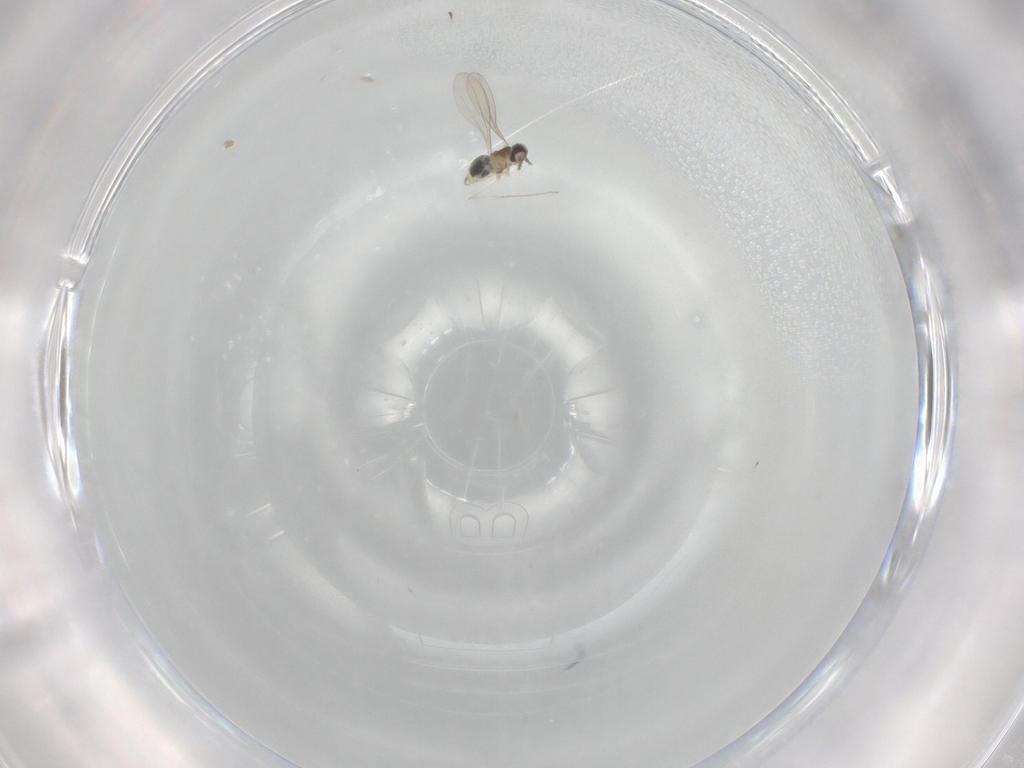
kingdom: Animalia
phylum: Arthropoda
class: Insecta
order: Diptera
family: Cecidomyiidae
